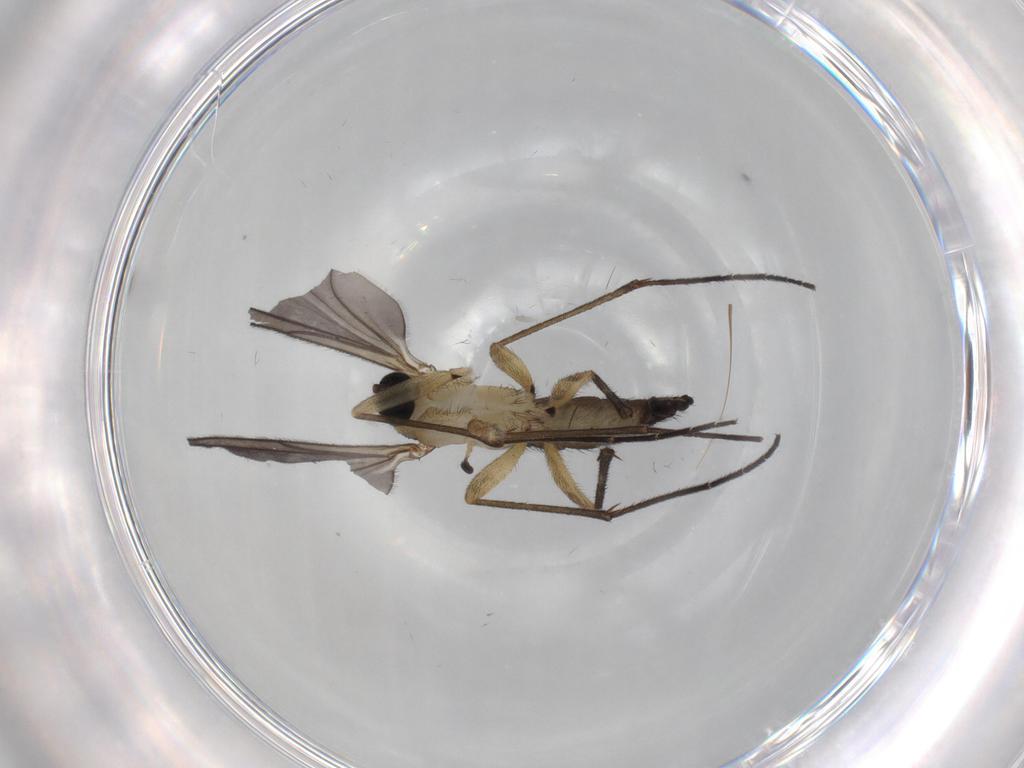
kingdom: Animalia
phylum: Arthropoda
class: Insecta
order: Diptera
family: Sciaridae
